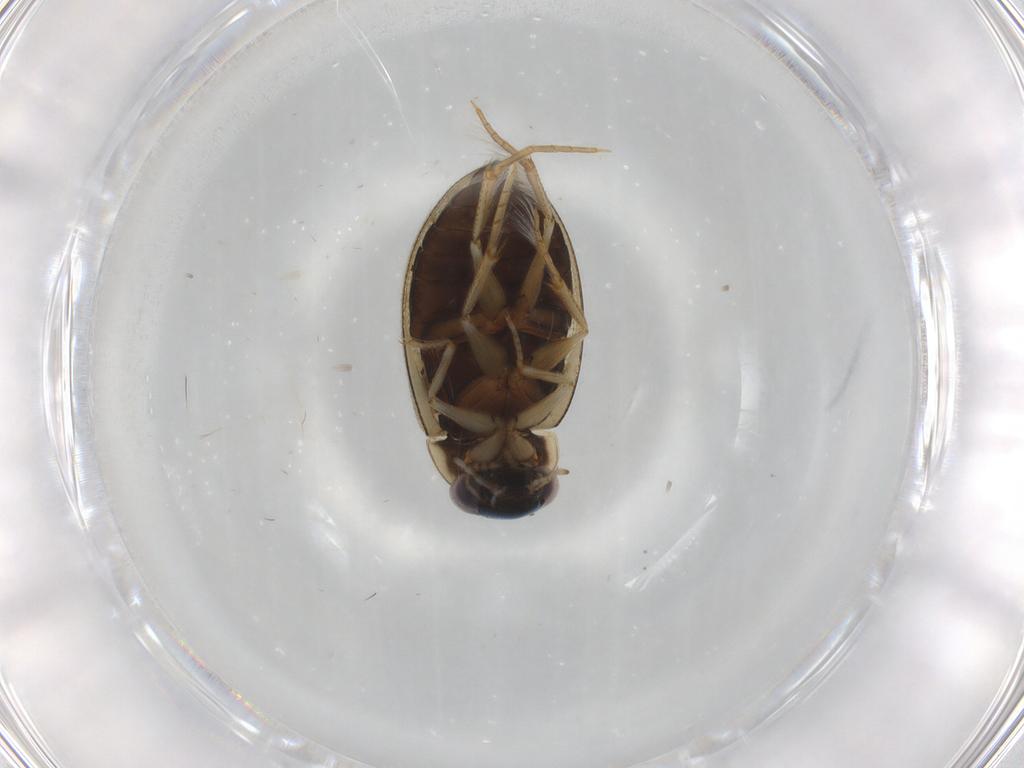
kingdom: Animalia
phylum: Arthropoda
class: Insecta
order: Coleoptera
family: Hydrophilidae
